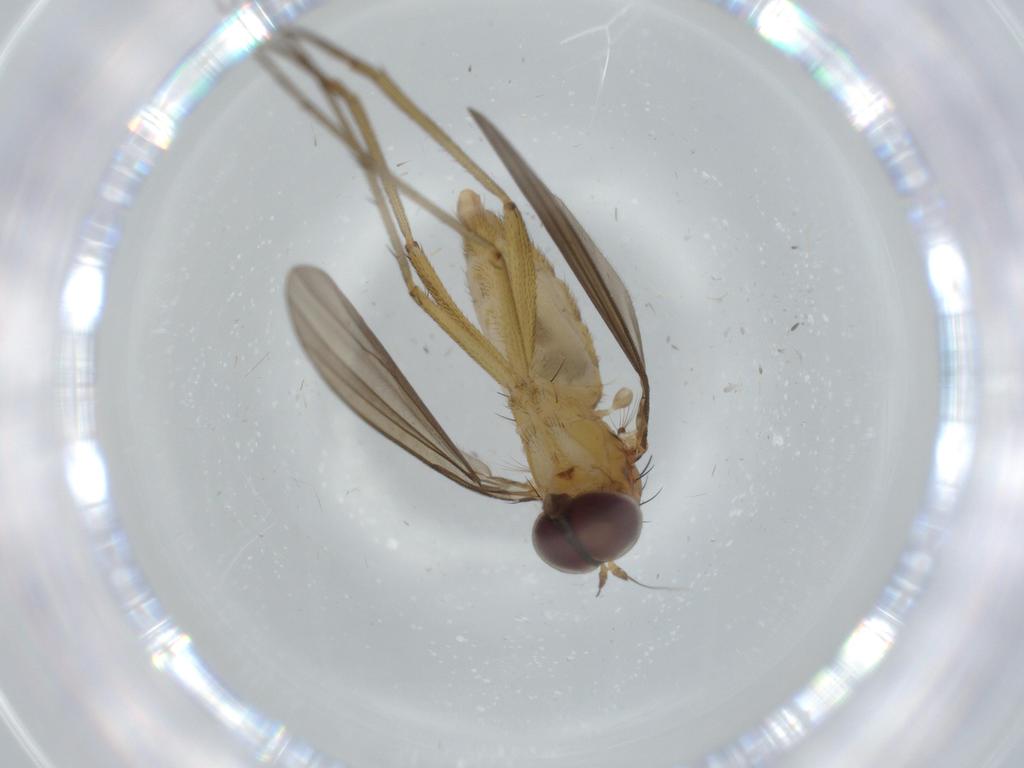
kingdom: Animalia
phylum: Arthropoda
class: Insecta
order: Diptera
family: Dolichopodidae
